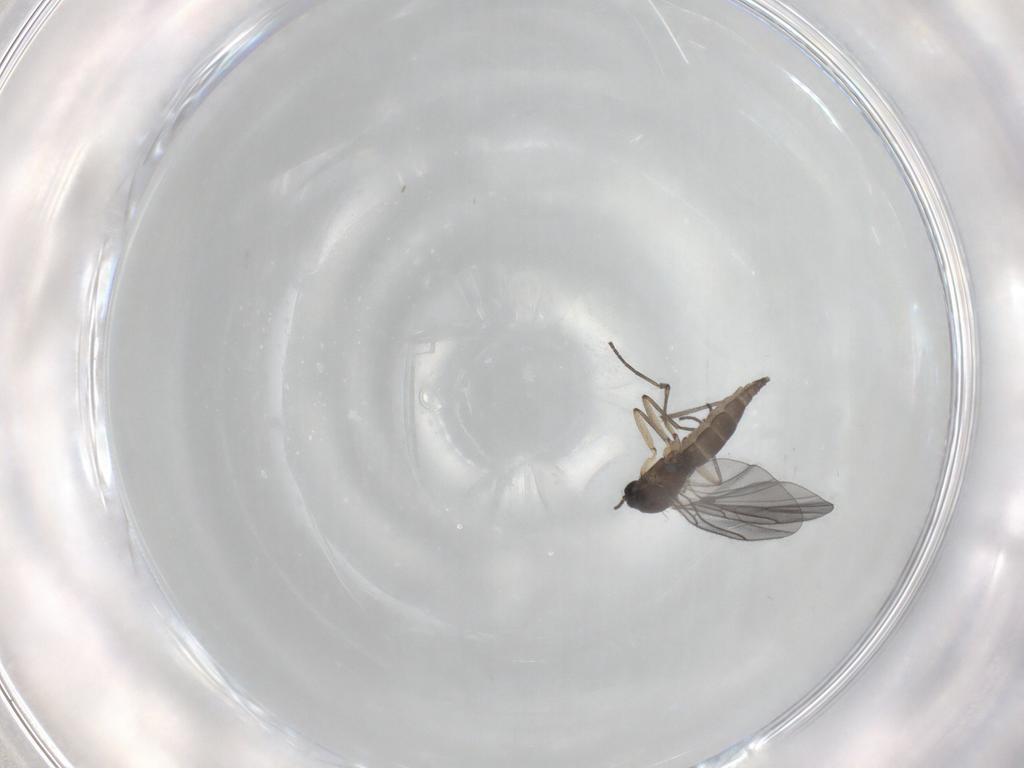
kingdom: Animalia
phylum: Arthropoda
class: Insecta
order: Diptera
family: Sciaridae
